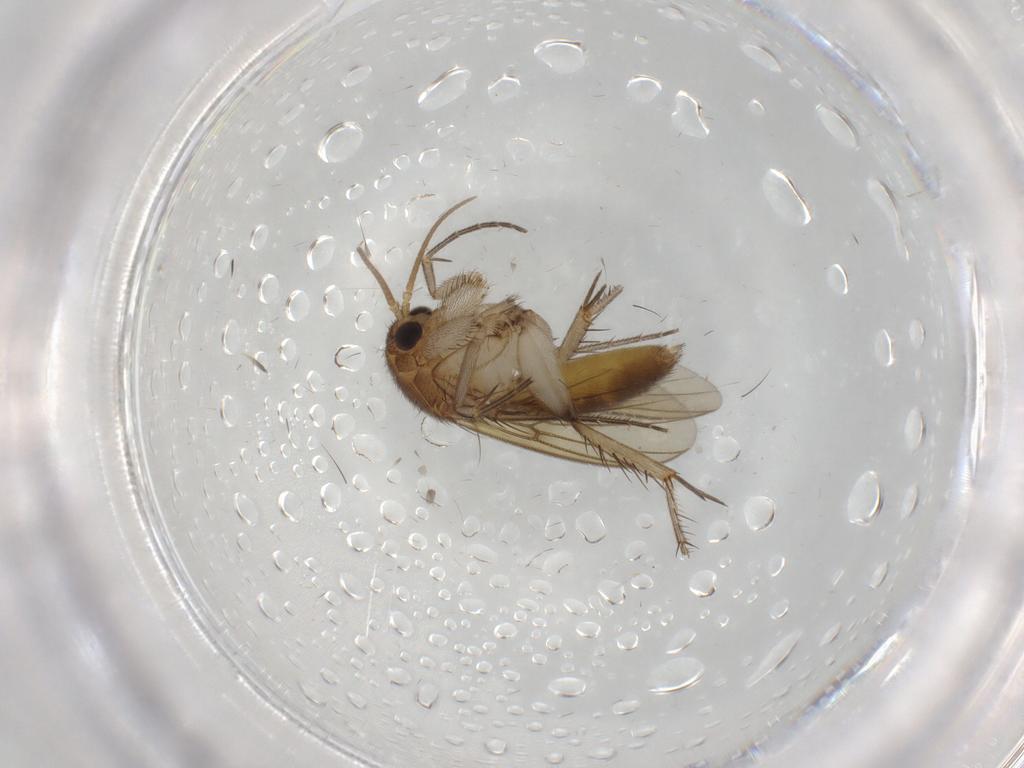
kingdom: Animalia
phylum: Arthropoda
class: Insecta
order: Diptera
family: Cecidomyiidae
